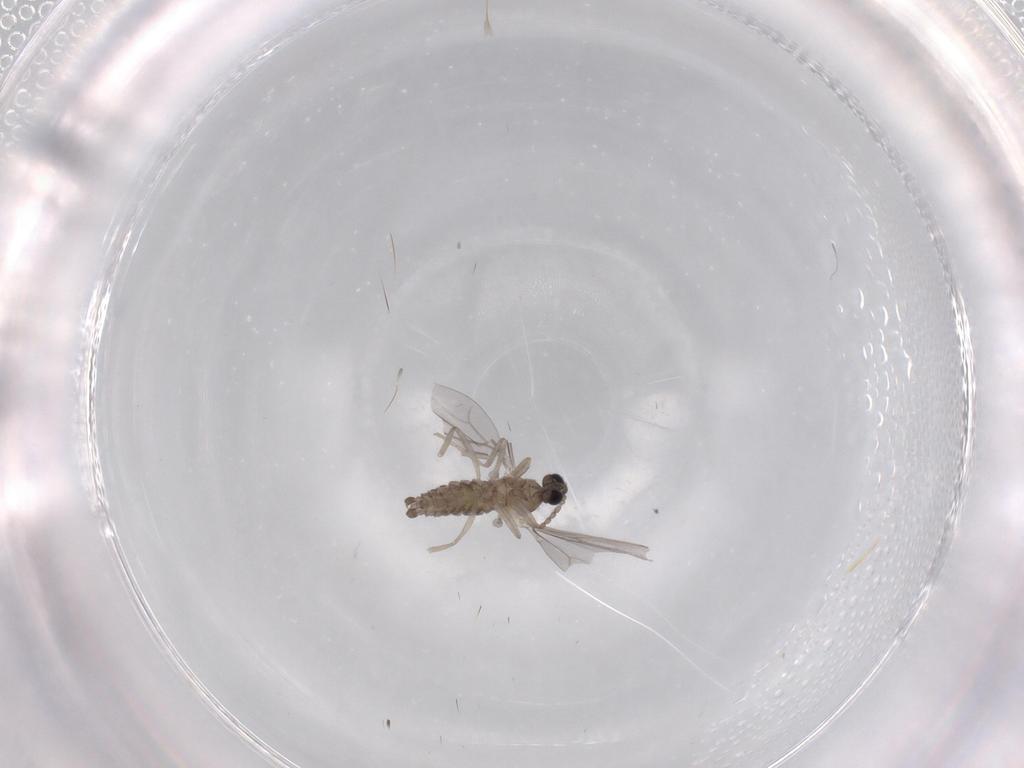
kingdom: Animalia
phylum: Arthropoda
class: Insecta
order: Diptera
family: Cecidomyiidae
